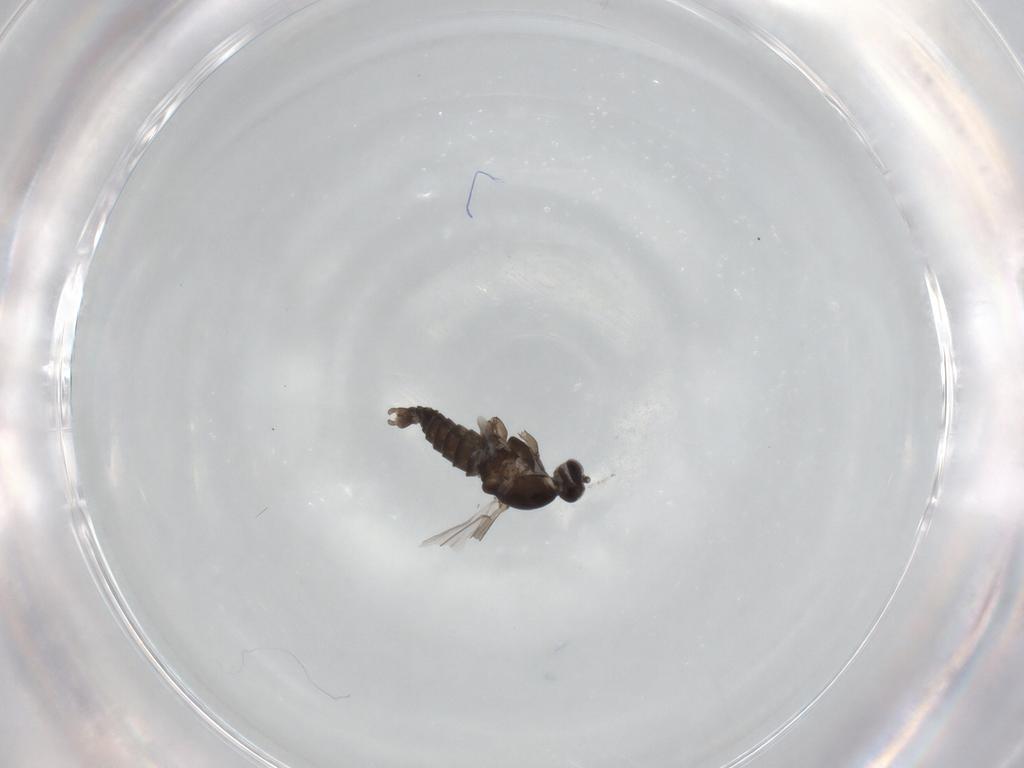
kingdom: Animalia
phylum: Arthropoda
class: Insecta
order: Diptera
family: Cecidomyiidae
